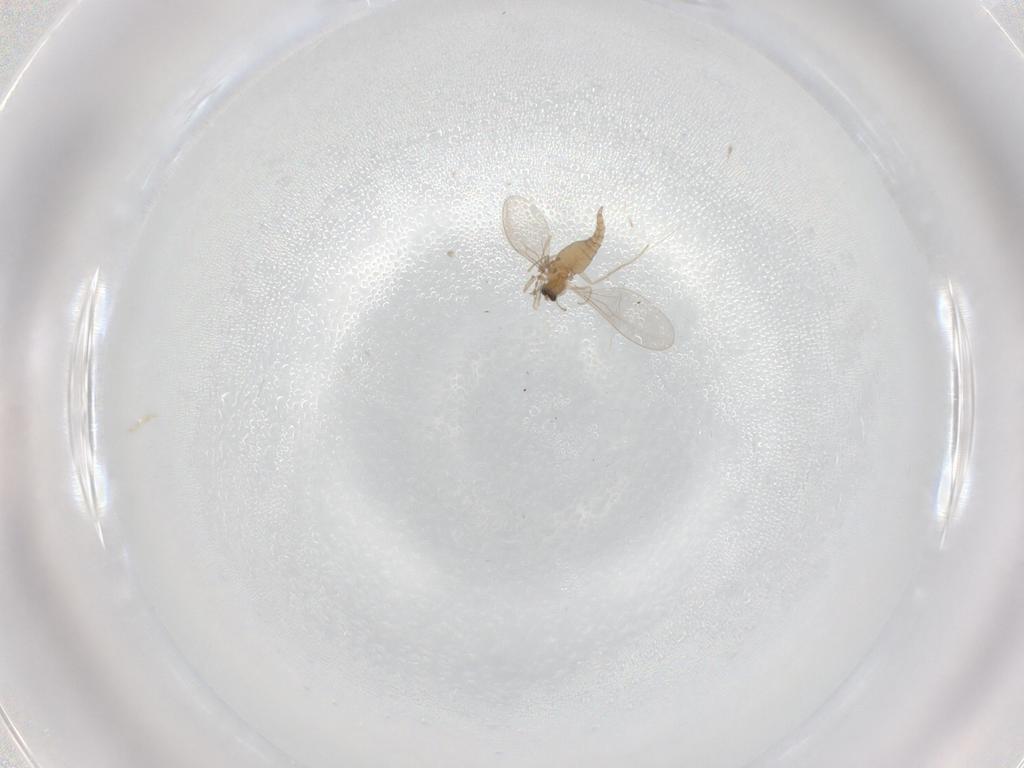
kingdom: Animalia
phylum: Arthropoda
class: Insecta
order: Diptera
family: Cecidomyiidae
